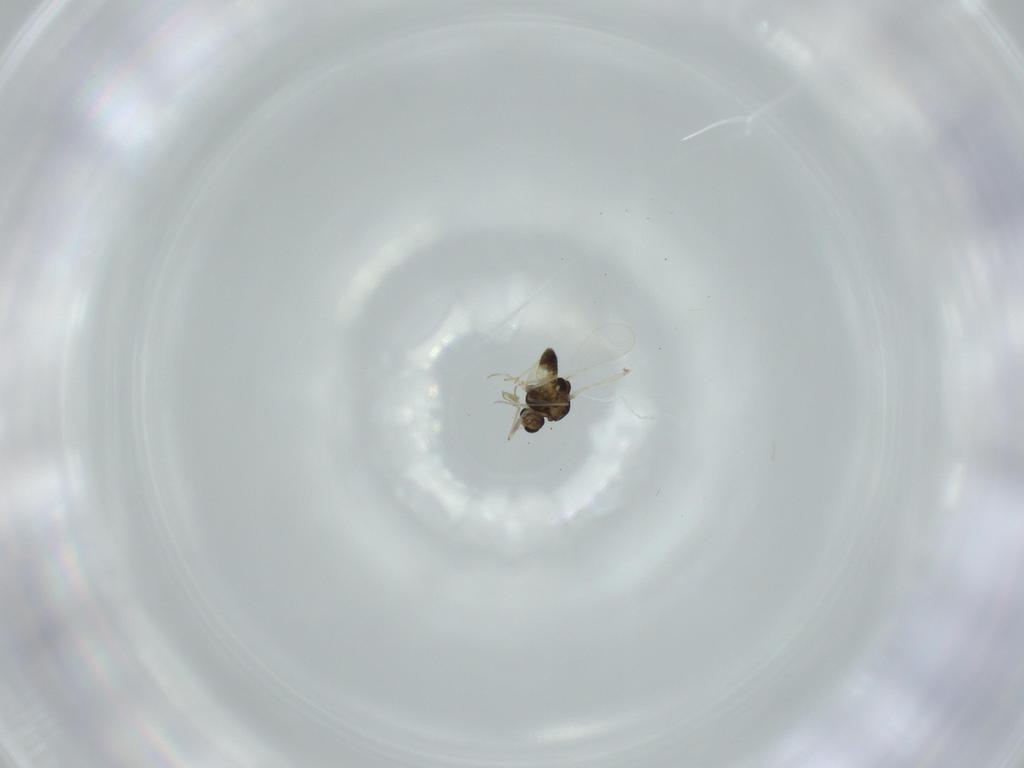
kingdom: Animalia
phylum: Arthropoda
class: Insecta
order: Diptera
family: Chironomidae
